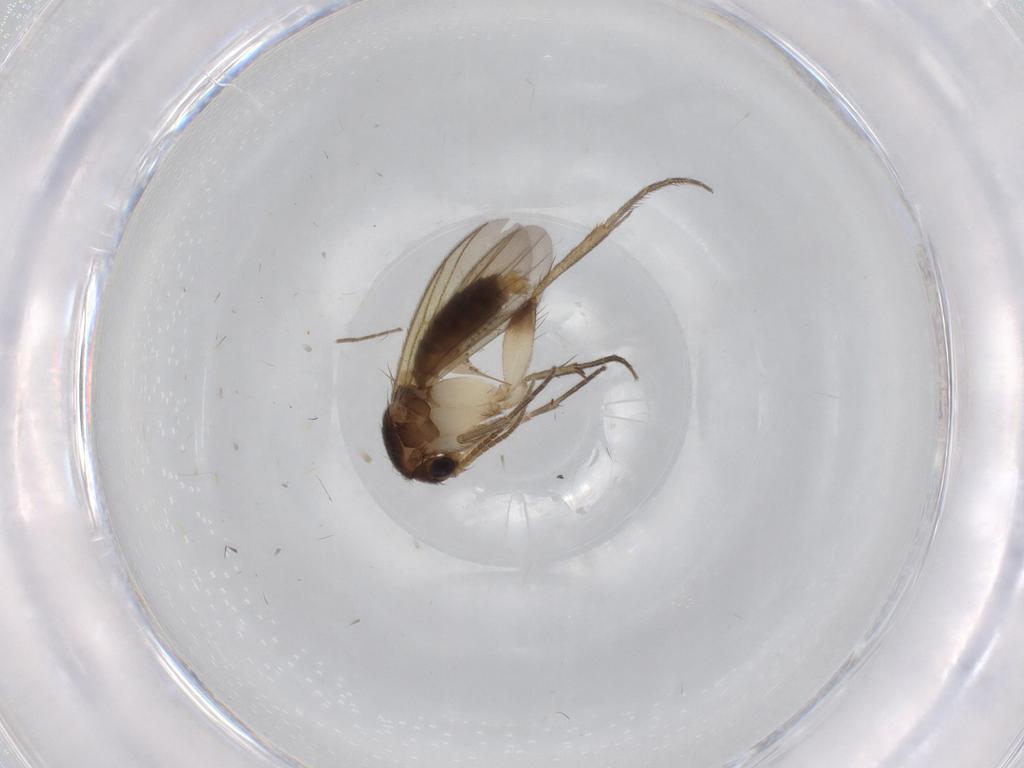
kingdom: Animalia
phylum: Arthropoda
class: Insecta
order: Diptera
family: Cecidomyiidae
